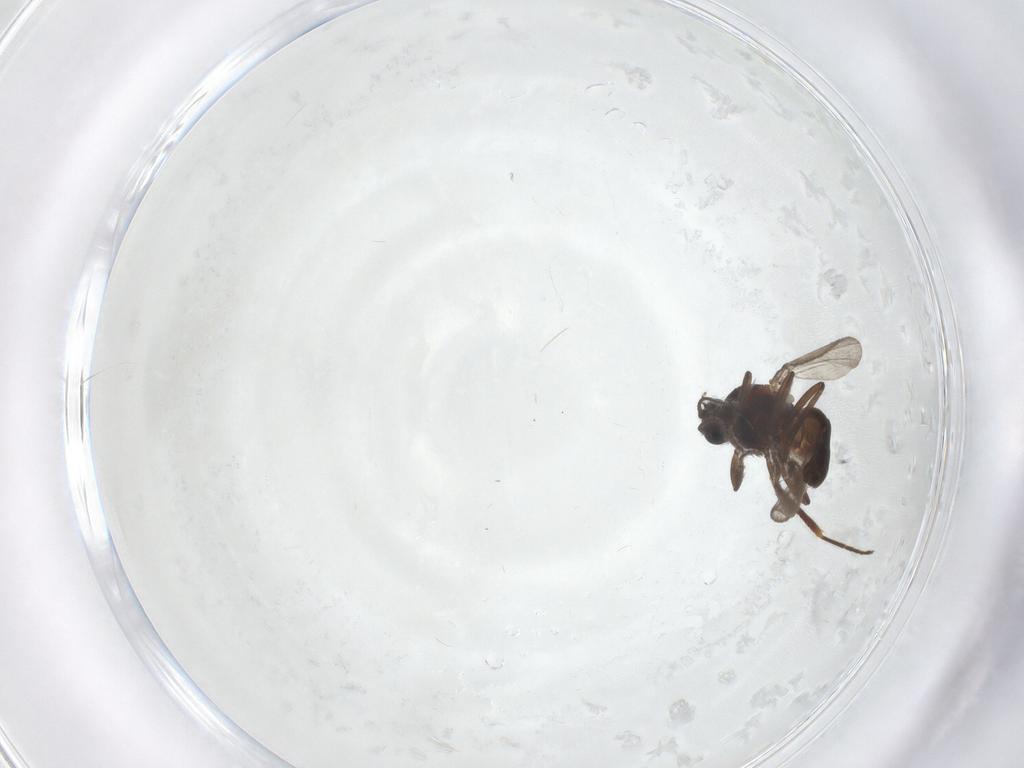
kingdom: Animalia
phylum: Arthropoda
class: Insecta
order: Diptera
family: Ceratopogonidae
